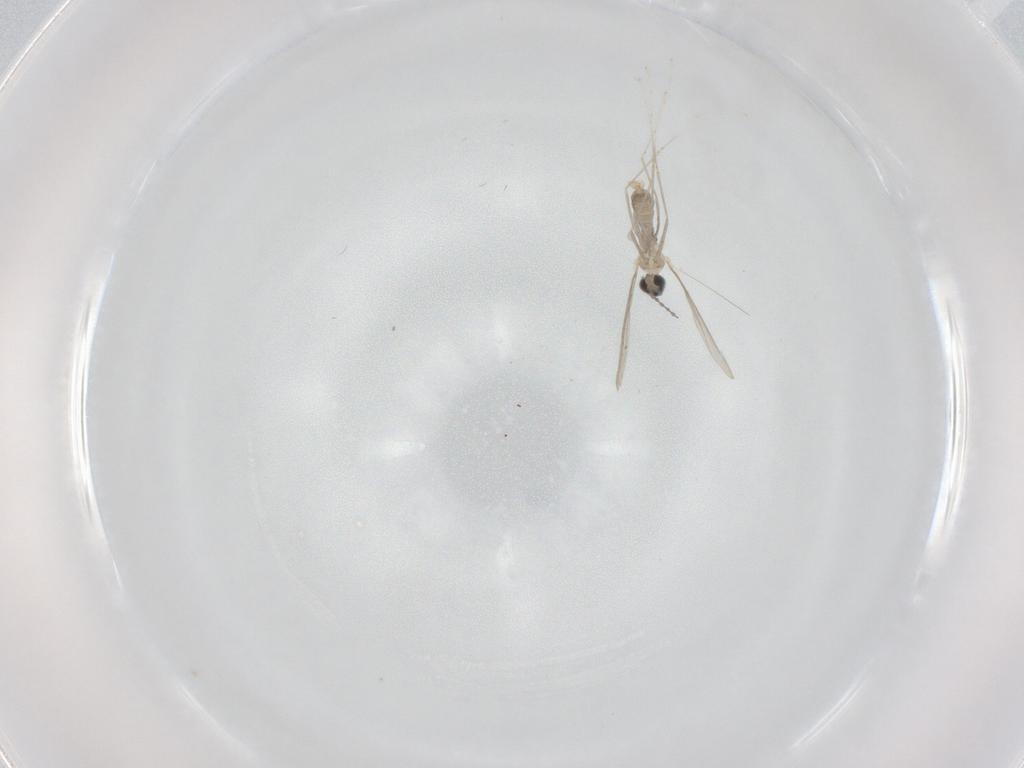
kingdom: Animalia
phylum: Arthropoda
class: Insecta
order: Diptera
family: Cecidomyiidae
